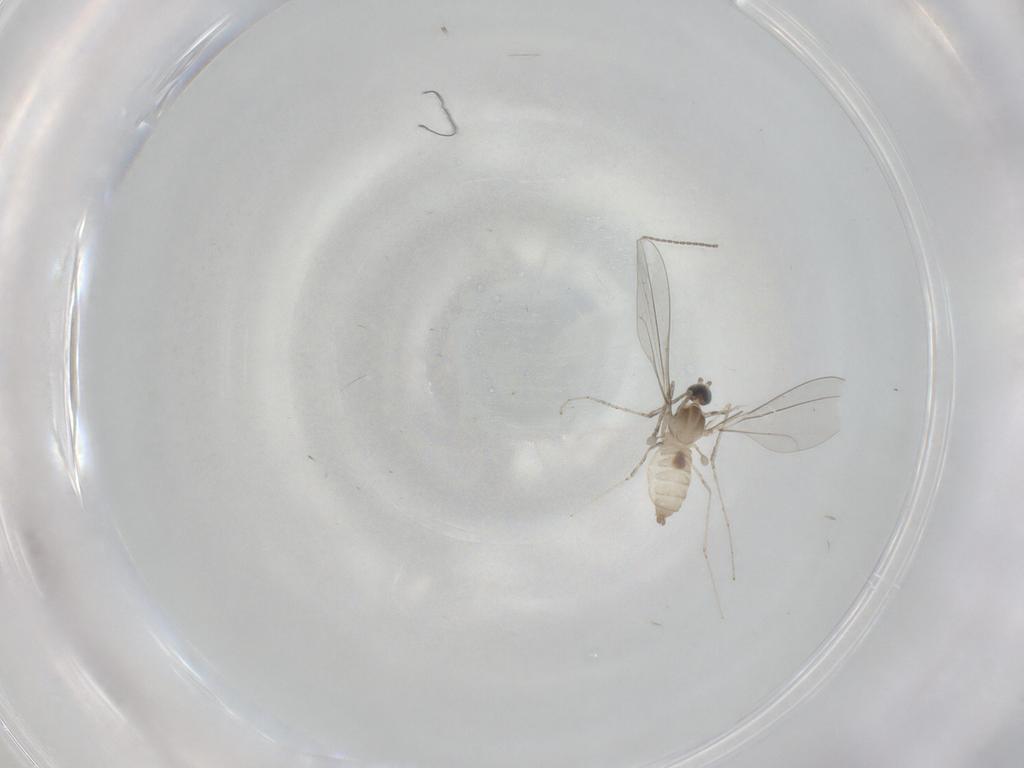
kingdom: Animalia
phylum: Arthropoda
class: Insecta
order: Diptera
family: Cecidomyiidae
